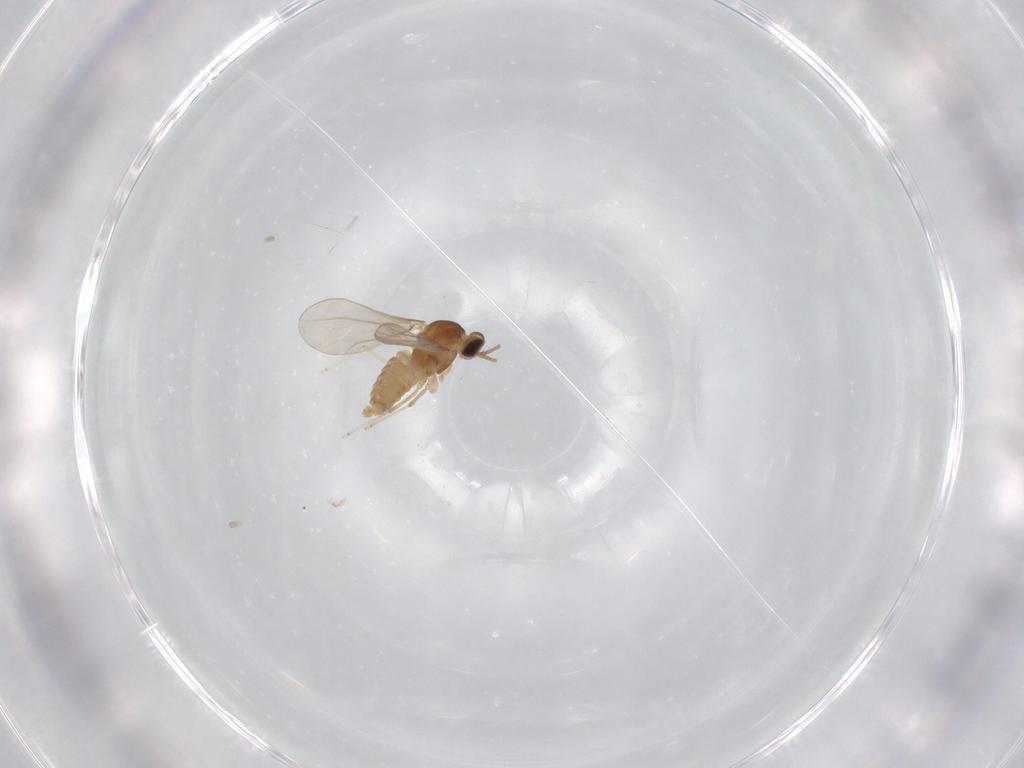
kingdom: Animalia
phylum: Arthropoda
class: Insecta
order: Diptera
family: Cecidomyiidae
